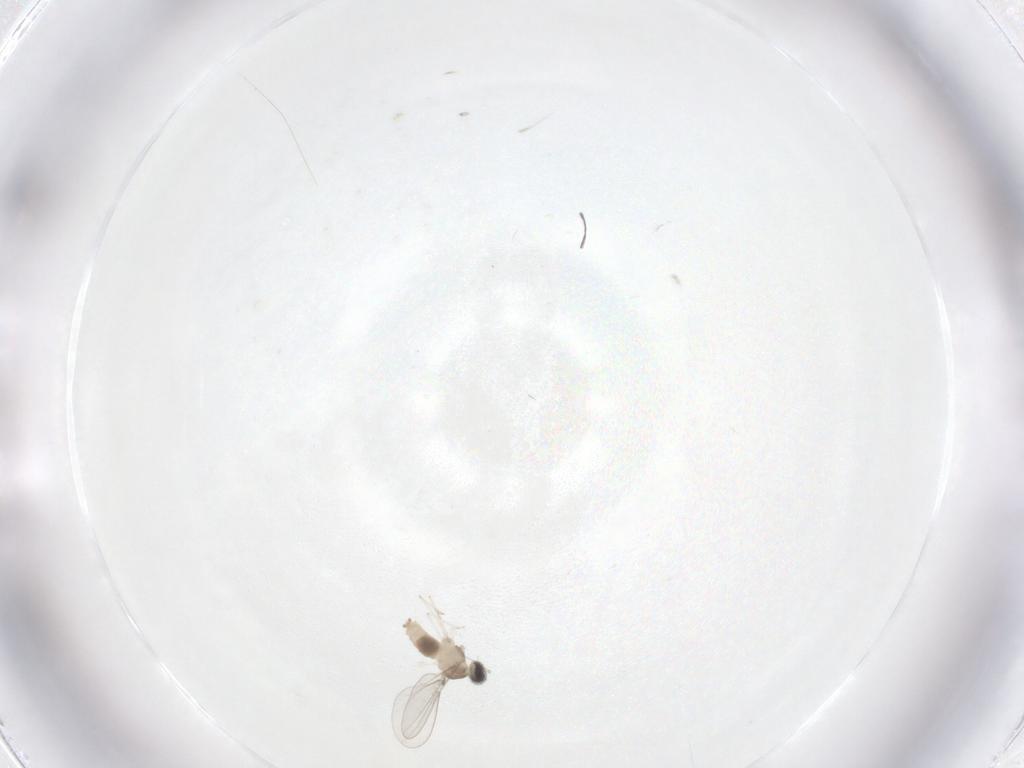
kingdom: Animalia
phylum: Arthropoda
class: Insecta
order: Diptera
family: Cecidomyiidae
